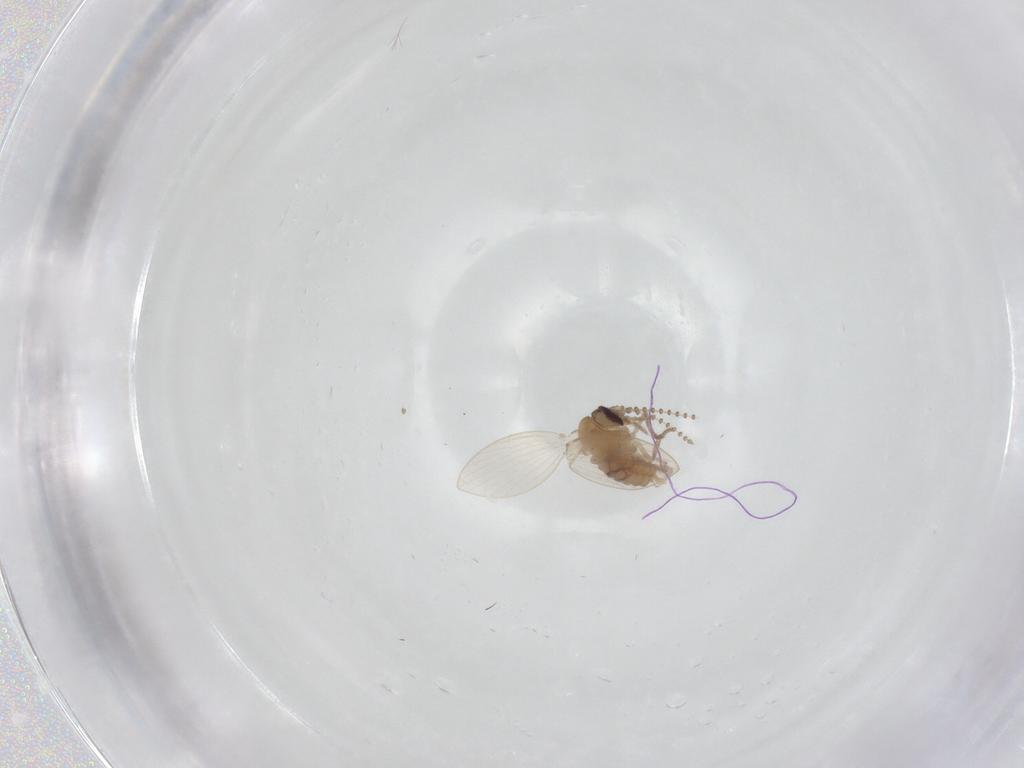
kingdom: Animalia
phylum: Arthropoda
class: Insecta
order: Diptera
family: Psychodidae
